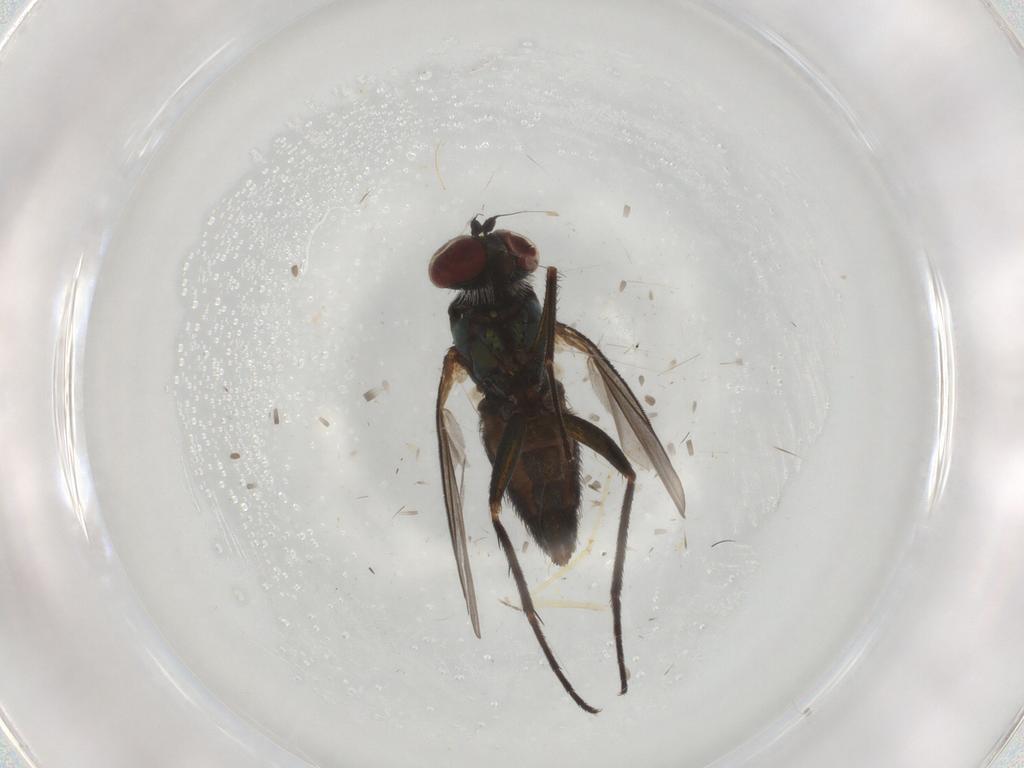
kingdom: Animalia
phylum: Arthropoda
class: Insecta
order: Diptera
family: Dolichopodidae
